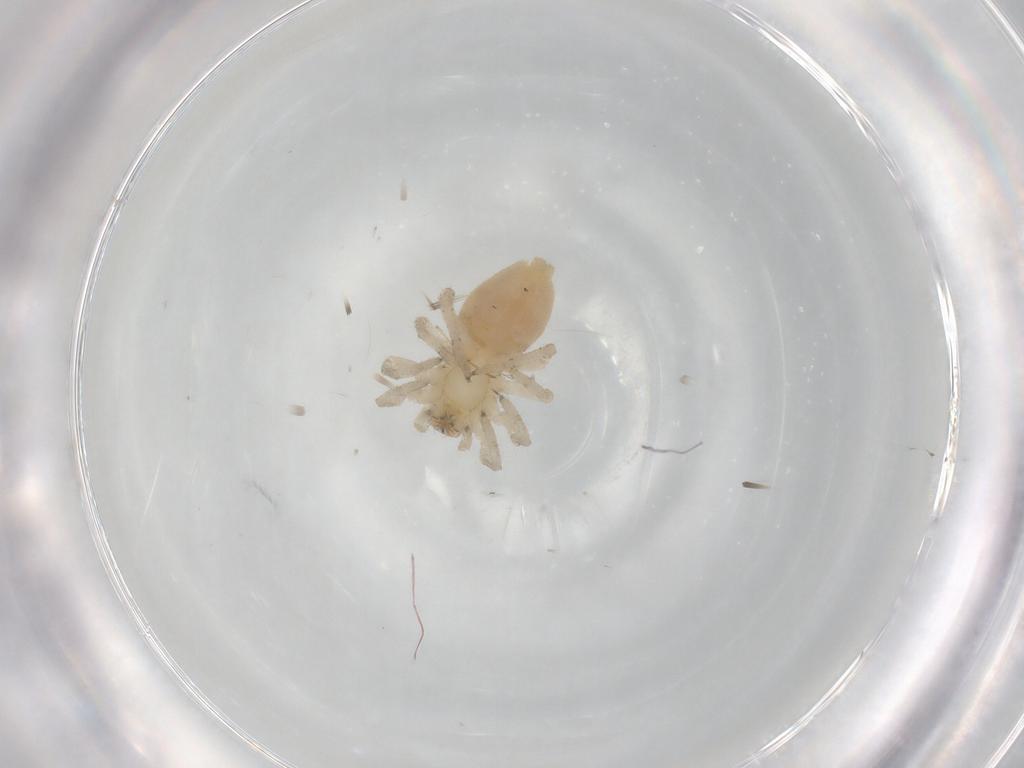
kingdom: Animalia
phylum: Arthropoda
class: Arachnida
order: Araneae
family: Clubionidae
